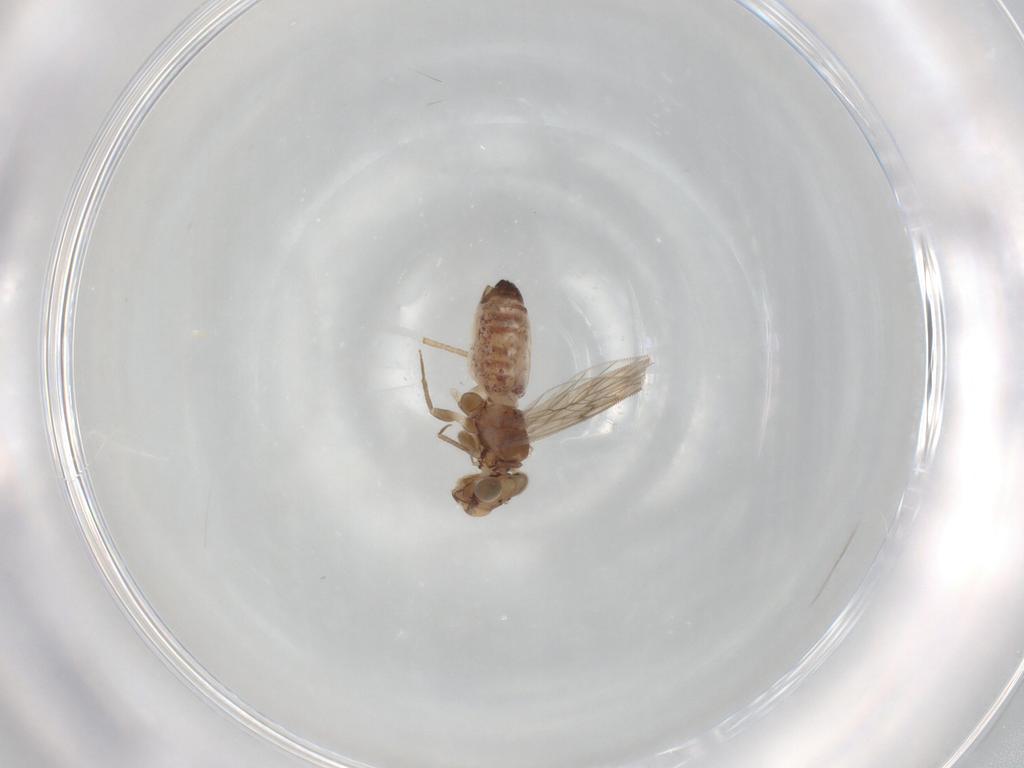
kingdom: Animalia
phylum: Arthropoda
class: Insecta
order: Psocodea
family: Lepidopsocidae
